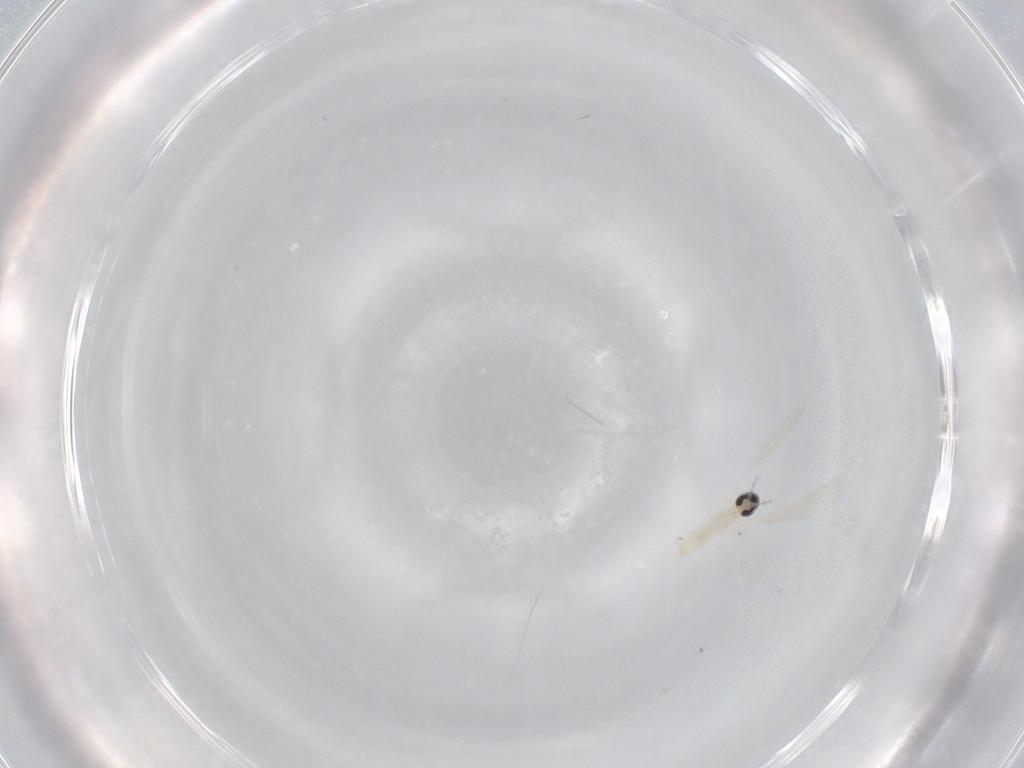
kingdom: Animalia
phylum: Arthropoda
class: Insecta
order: Diptera
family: Cecidomyiidae
